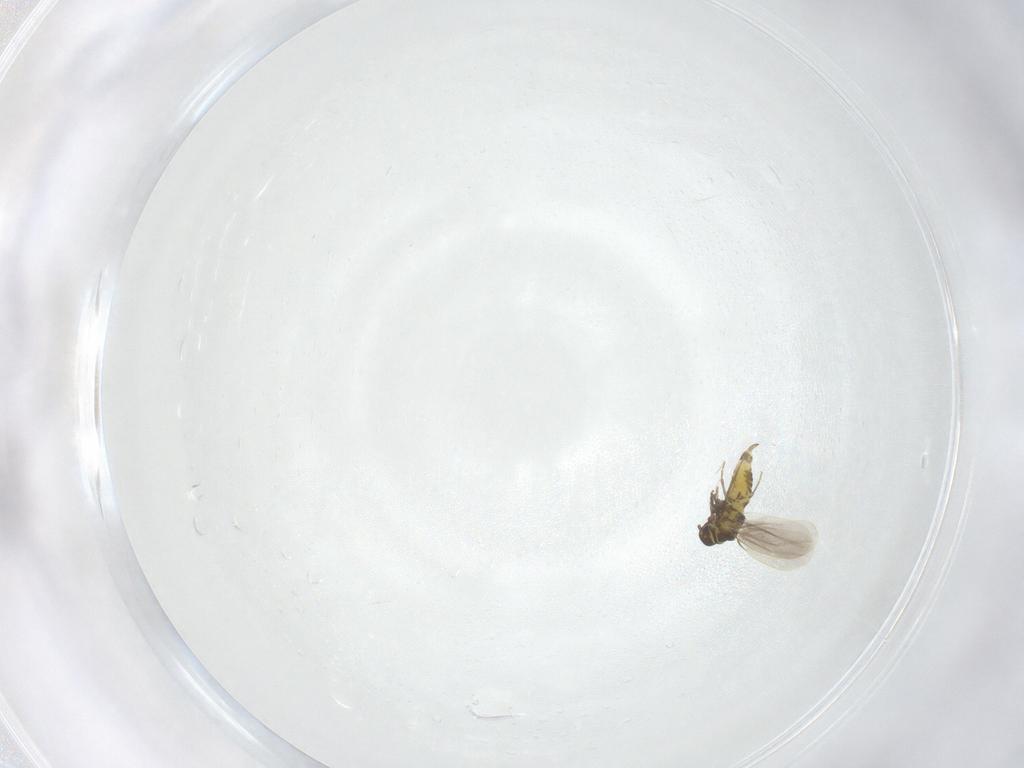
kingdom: Animalia
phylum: Arthropoda
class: Insecta
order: Hemiptera
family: Aleyrodidae
